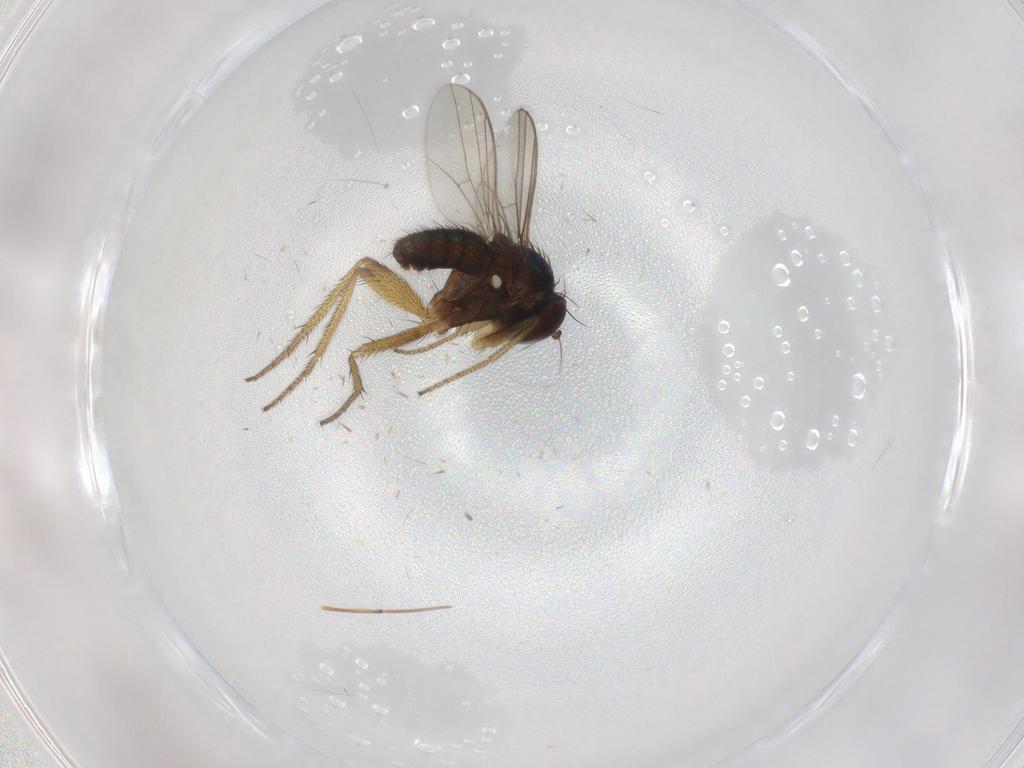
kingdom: Animalia
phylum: Arthropoda
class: Insecta
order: Diptera
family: Dolichopodidae
